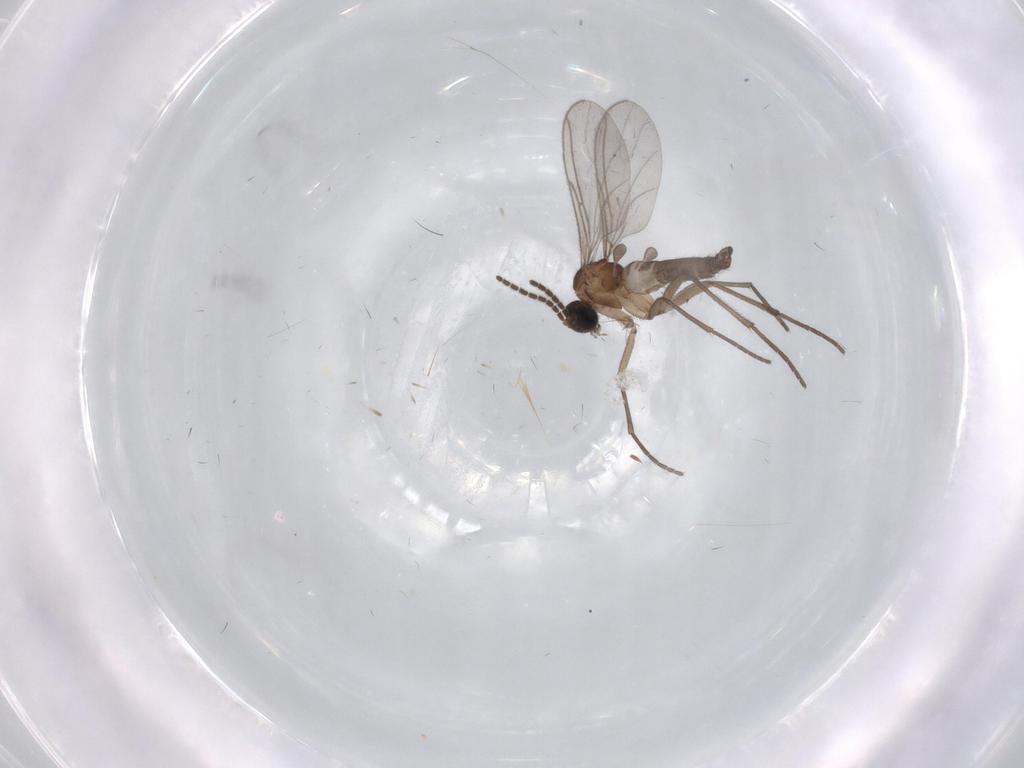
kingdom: Animalia
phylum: Arthropoda
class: Insecta
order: Diptera
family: Sciaridae
